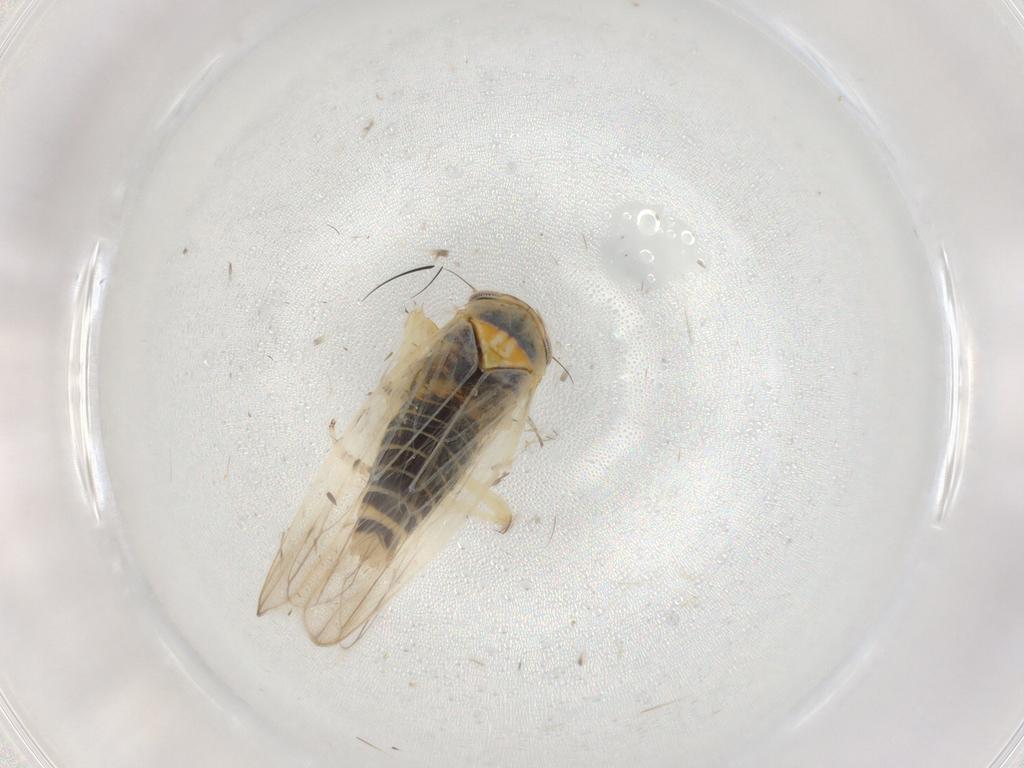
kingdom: Animalia
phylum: Arthropoda
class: Insecta
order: Hemiptera
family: Cicadellidae
